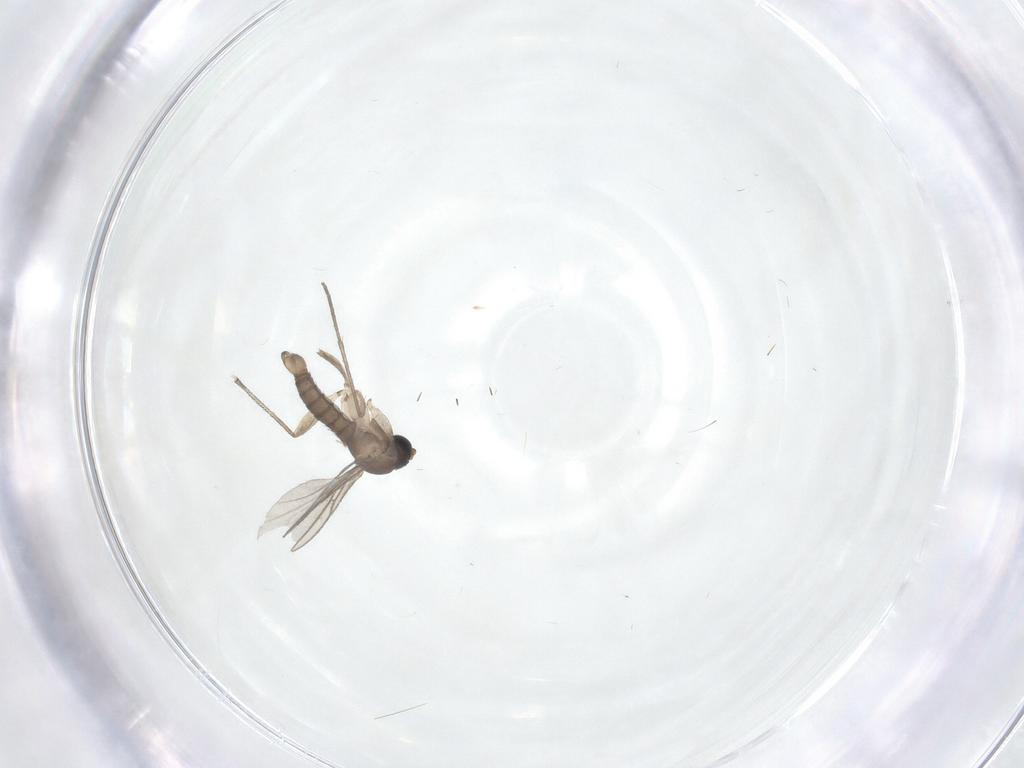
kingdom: Animalia
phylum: Arthropoda
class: Insecta
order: Diptera
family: Sciaridae
